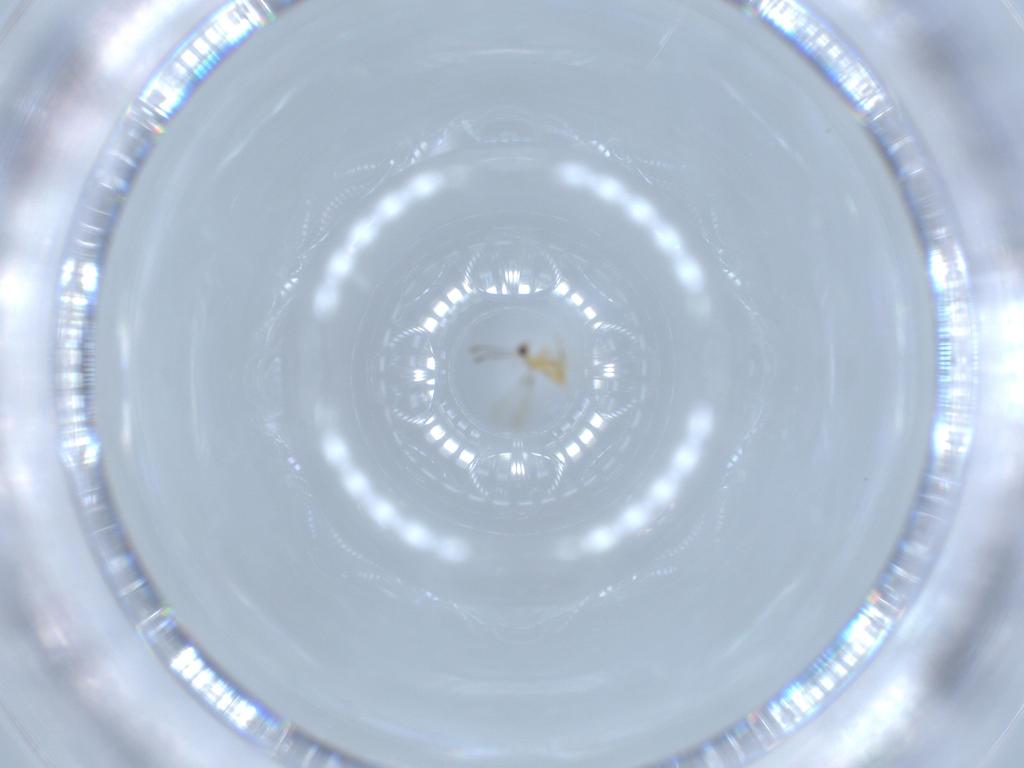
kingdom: Animalia
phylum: Arthropoda
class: Insecta
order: Hymenoptera
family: Mymaridae
